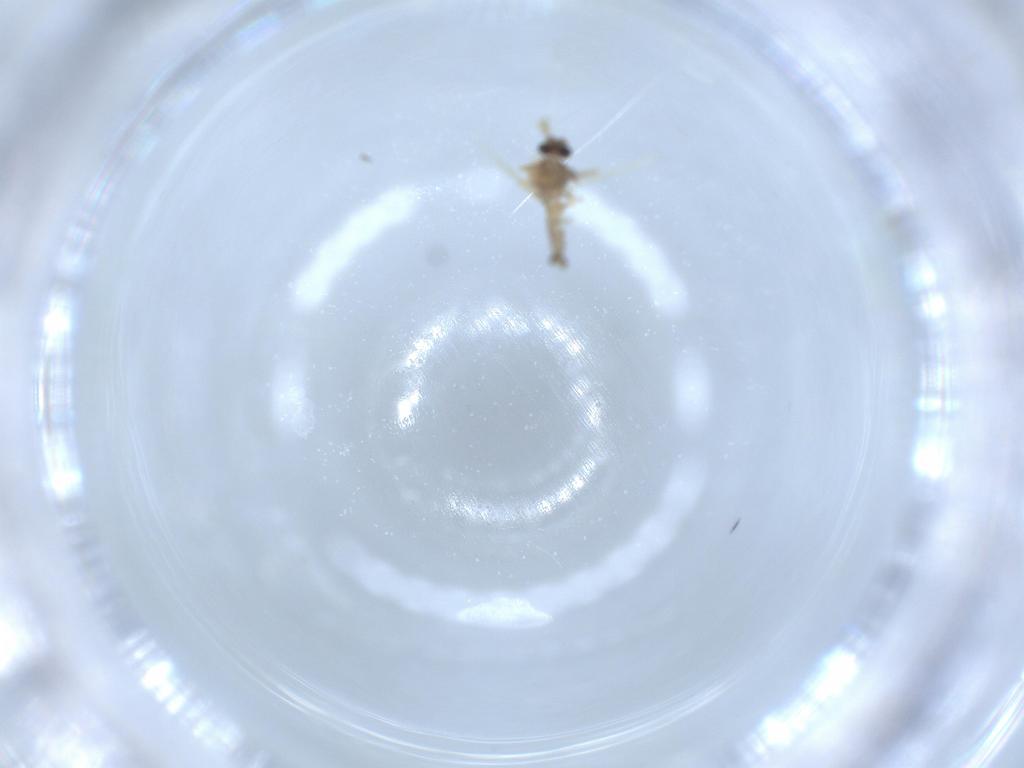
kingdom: Animalia
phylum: Arthropoda
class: Insecta
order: Diptera
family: Ceratopogonidae
